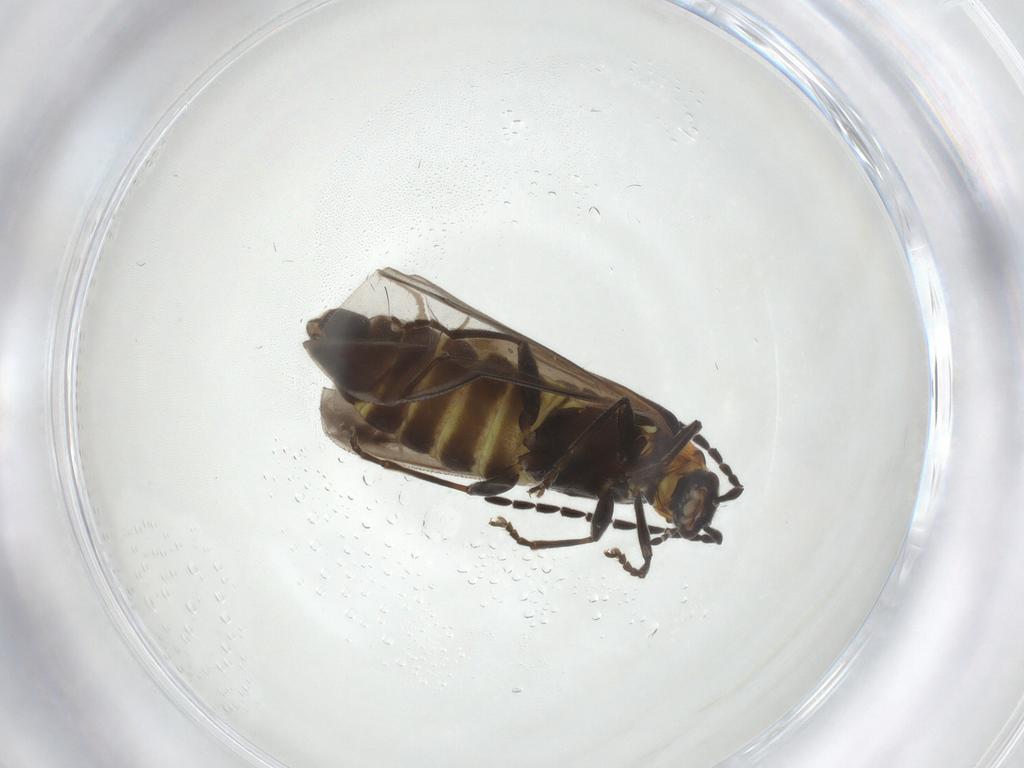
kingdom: Animalia
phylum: Arthropoda
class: Insecta
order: Coleoptera
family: Cantharidae
